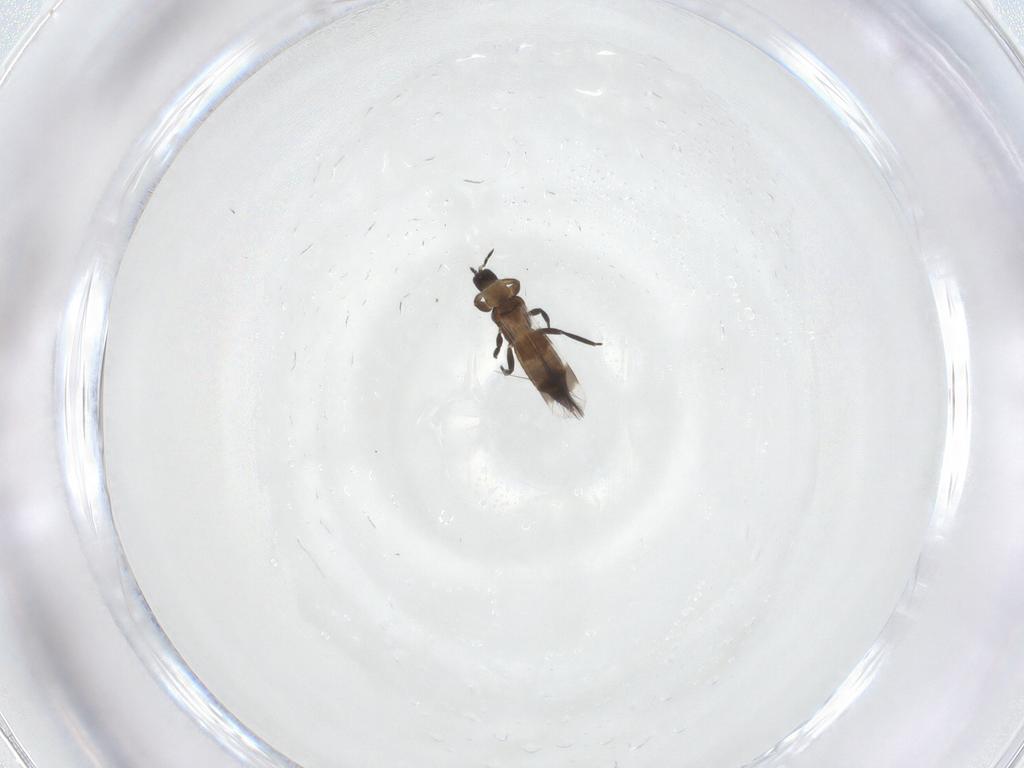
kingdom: Animalia
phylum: Arthropoda
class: Insecta
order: Thysanoptera
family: Aeolothripidae
